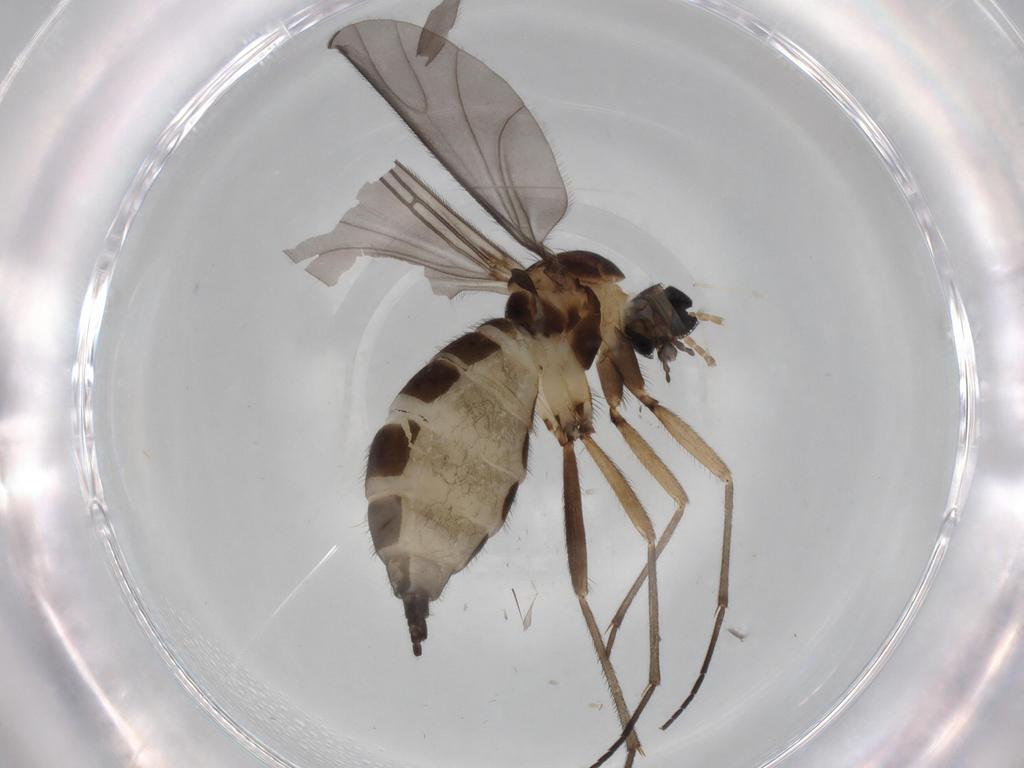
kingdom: Animalia
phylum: Arthropoda
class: Insecta
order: Diptera
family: Sciaridae
